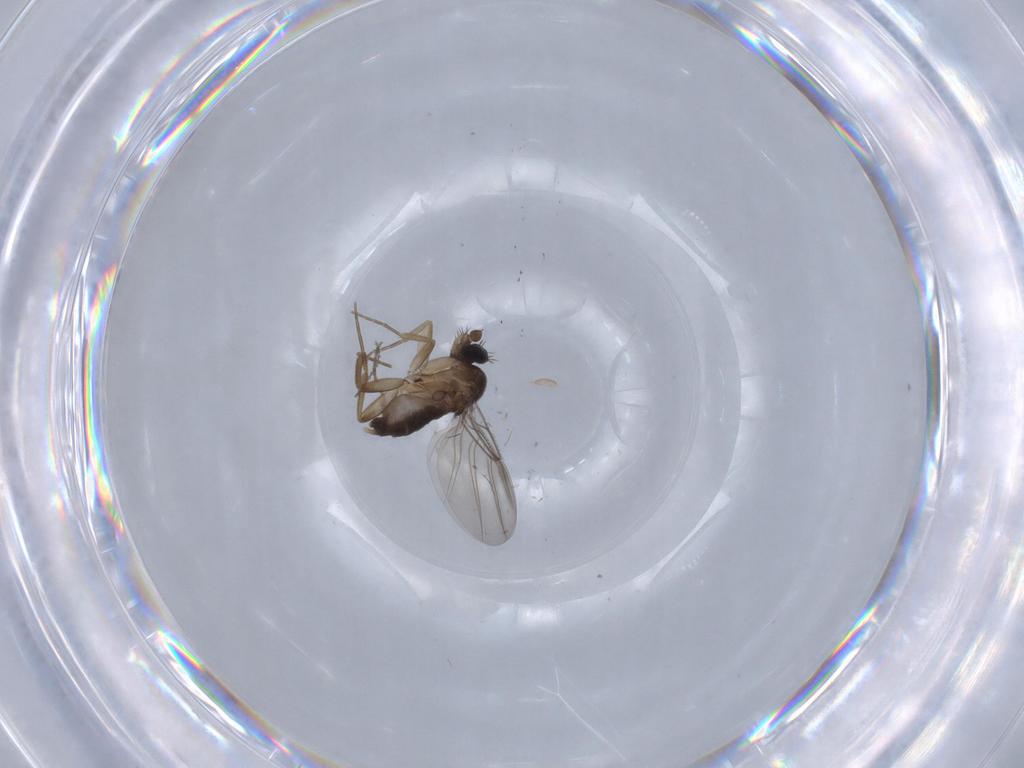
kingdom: Animalia
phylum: Arthropoda
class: Insecta
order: Diptera
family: Phoridae
